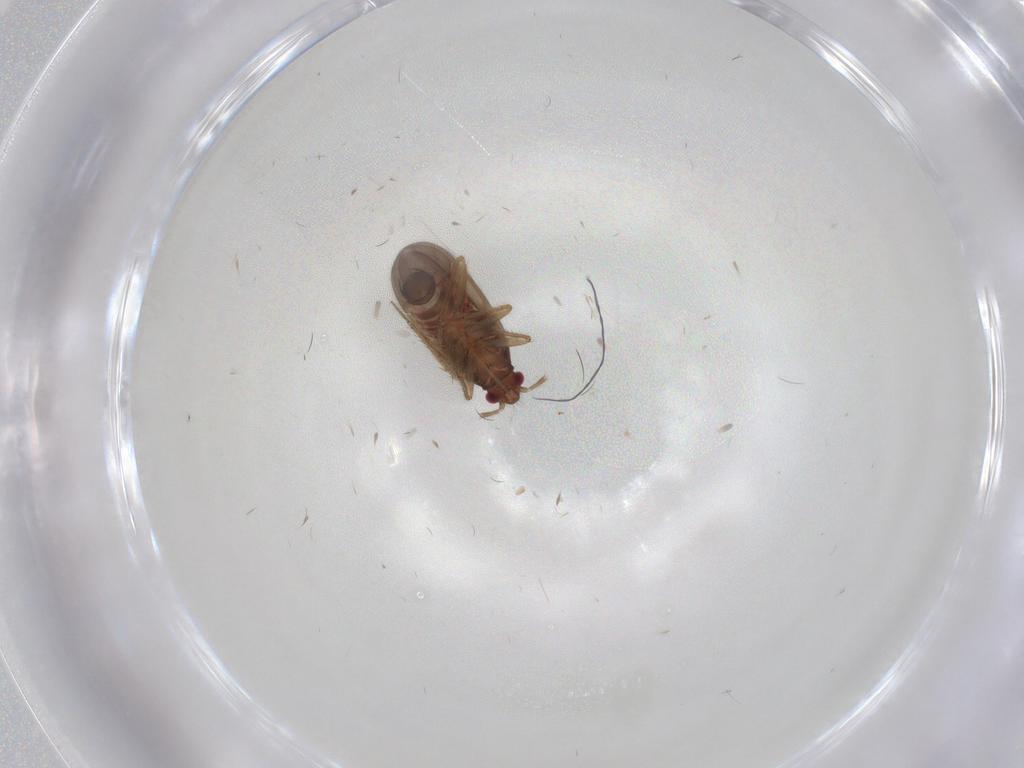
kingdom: Animalia
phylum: Arthropoda
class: Insecta
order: Hemiptera
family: Ceratocombidae
